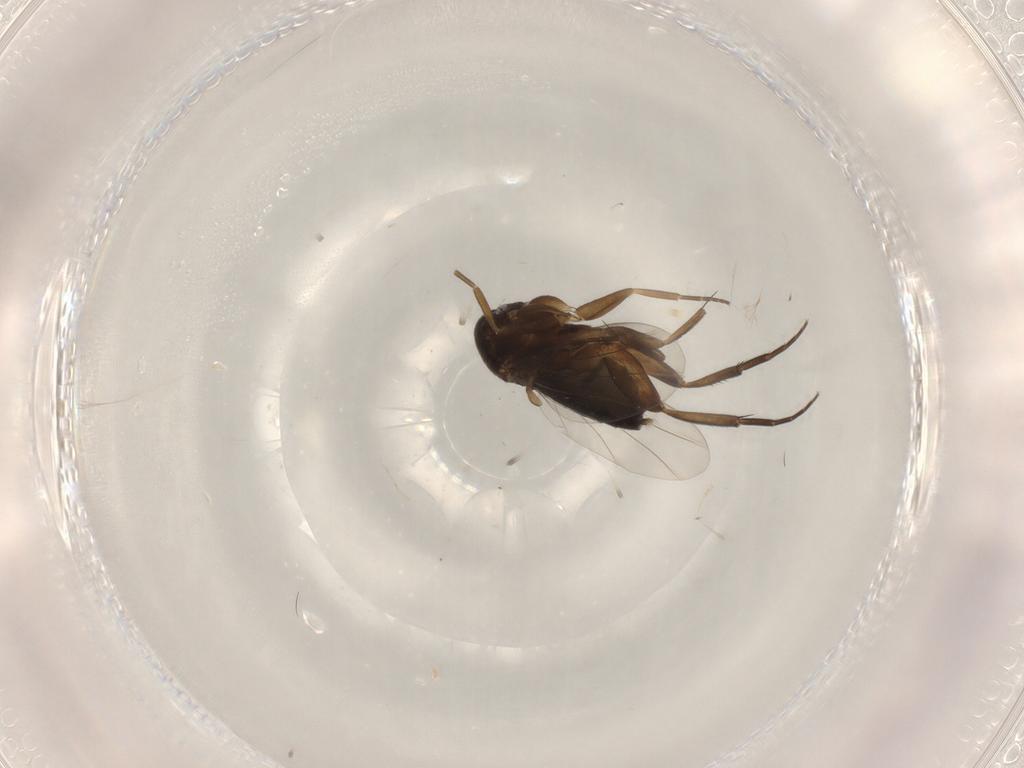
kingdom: Animalia
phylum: Arthropoda
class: Insecta
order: Diptera
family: Phoridae
